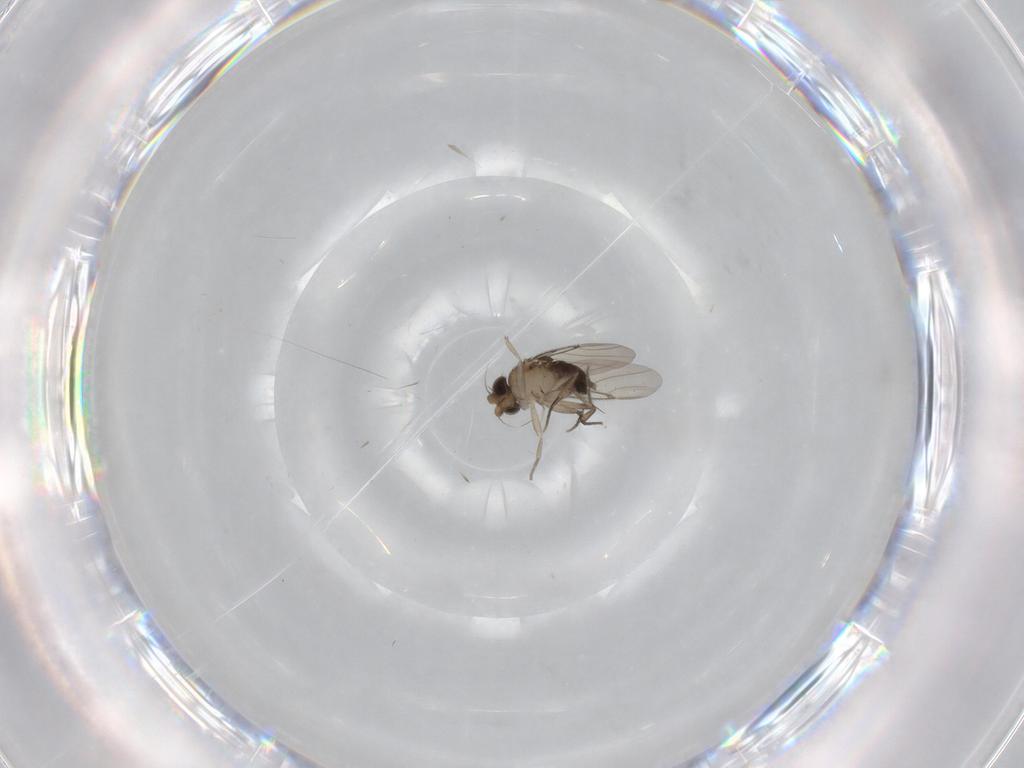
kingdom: Animalia
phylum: Arthropoda
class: Insecta
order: Diptera
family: Phoridae
